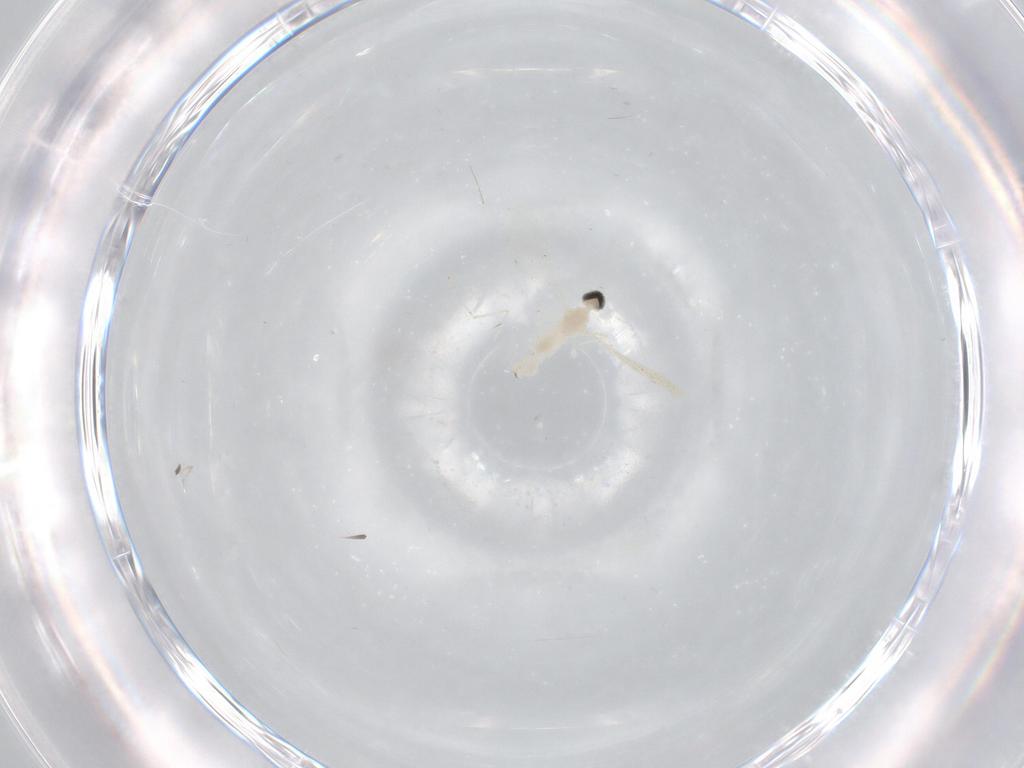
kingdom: Animalia
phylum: Arthropoda
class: Insecta
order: Diptera
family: Cecidomyiidae
